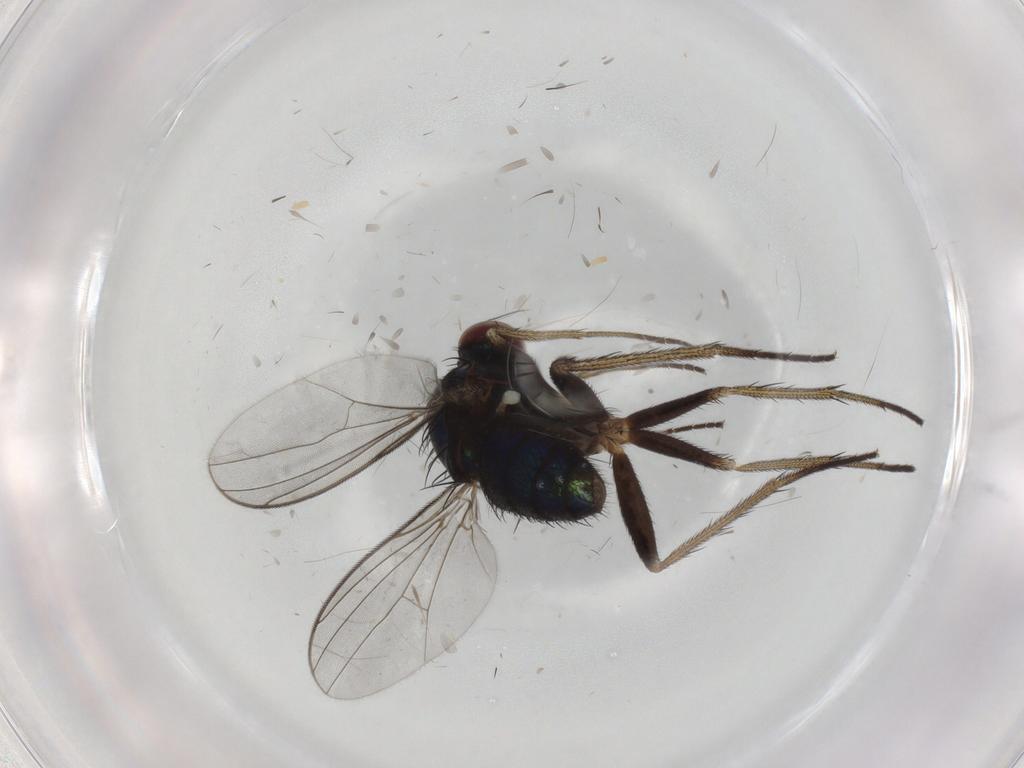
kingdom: Animalia
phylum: Arthropoda
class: Insecta
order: Diptera
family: Dolichopodidae
